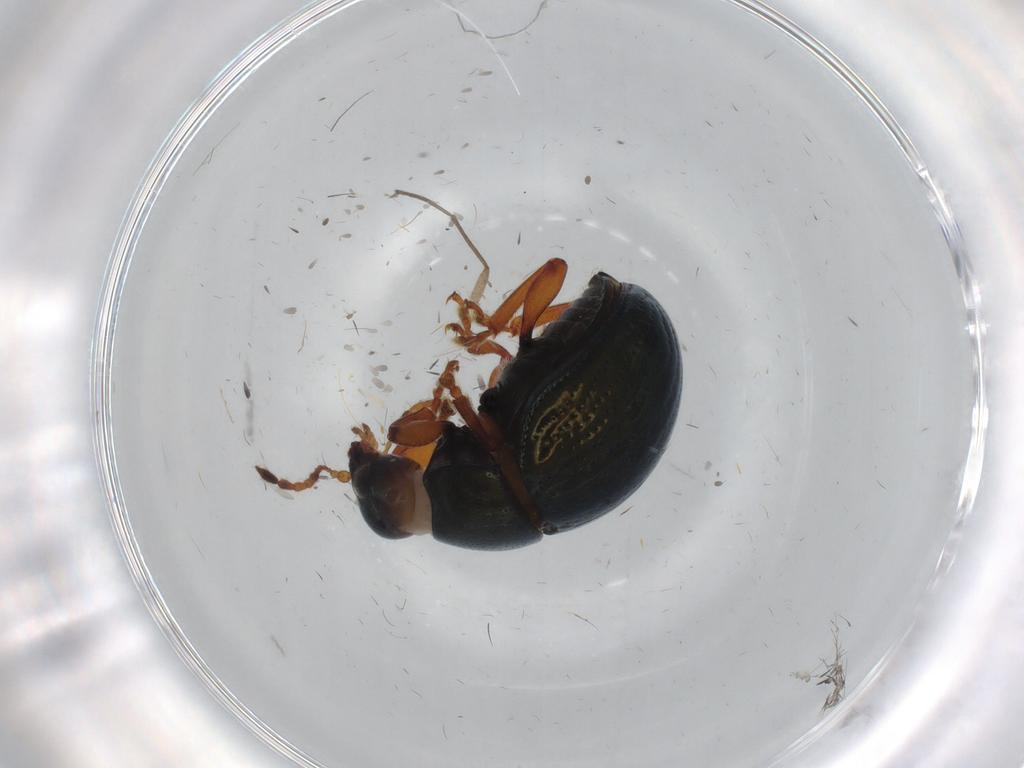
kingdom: Animalia
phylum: Arthropoda
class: Insecta
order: Coleoptera
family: Chrysomelidae
